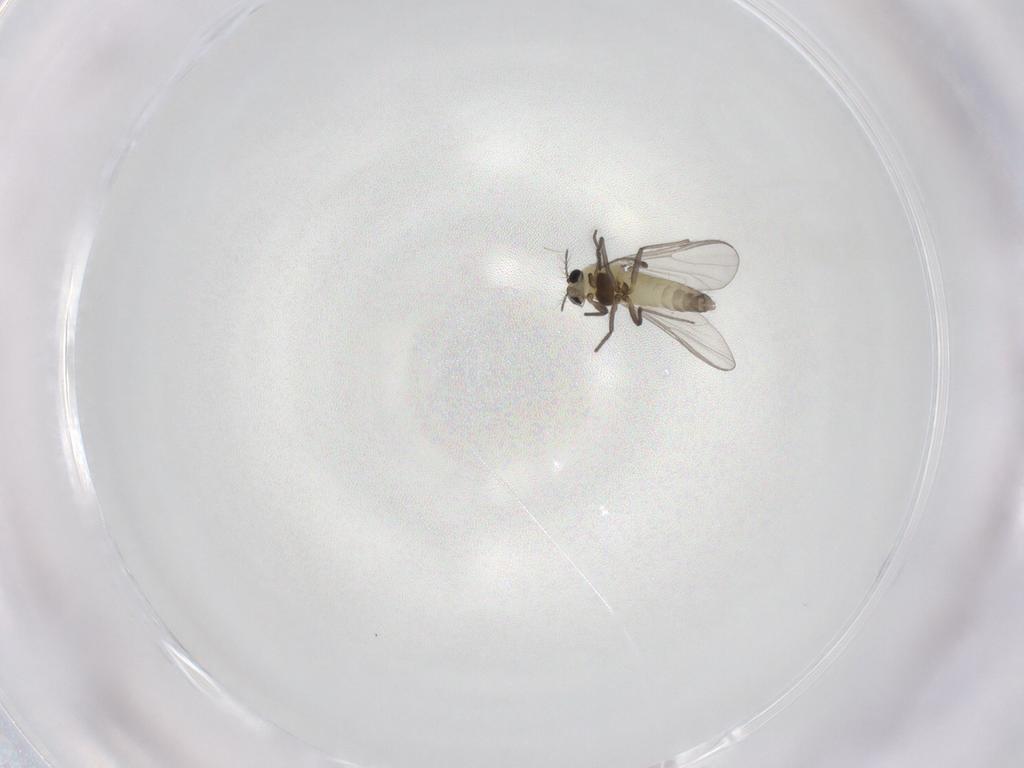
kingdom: Animalia
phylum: Arthropoda
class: Insecta
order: Diptera
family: Chironomidae
